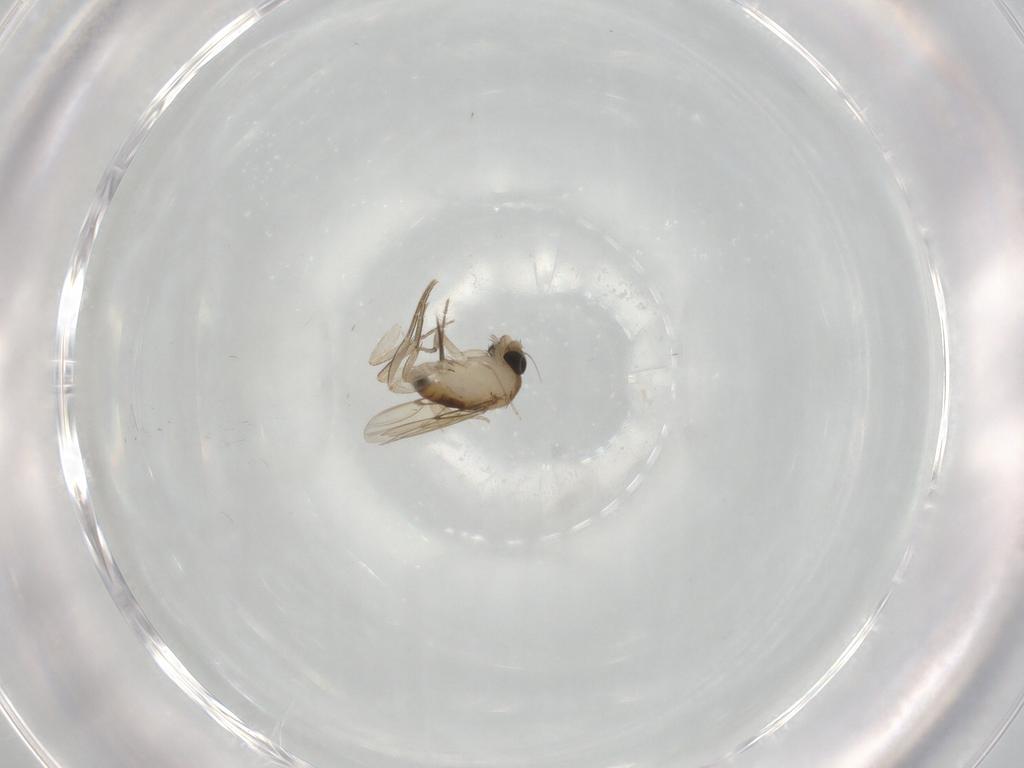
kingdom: Animalia
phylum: Arthropoda
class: Insecta
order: Diptera
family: Ceratopogonidae
